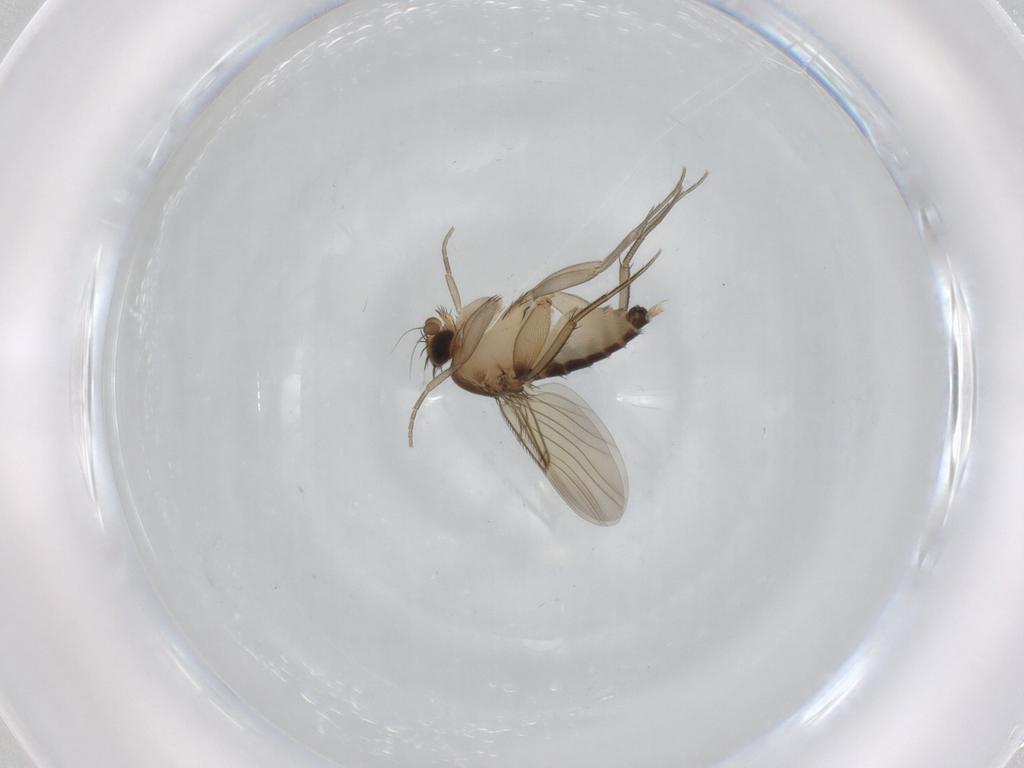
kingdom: Animalia
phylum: Arthropoda
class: Insecta
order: Diptera
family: Phoridae
